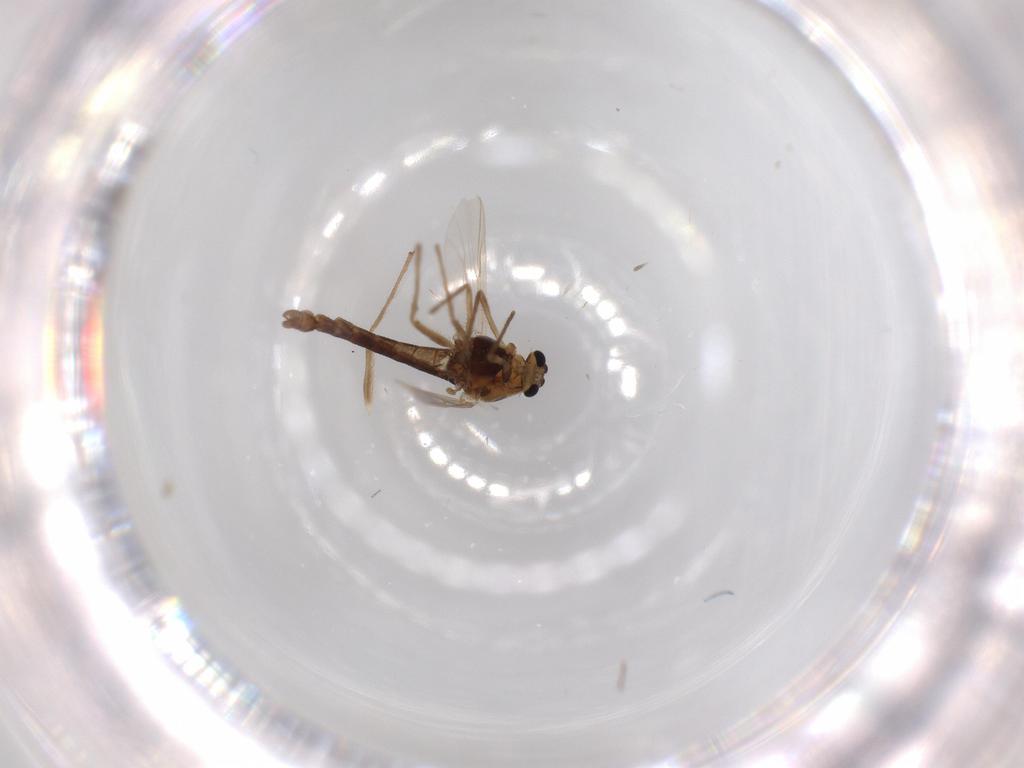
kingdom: Animalia
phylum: Arthropoda
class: Insecta
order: Diptera
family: Chironomidae
